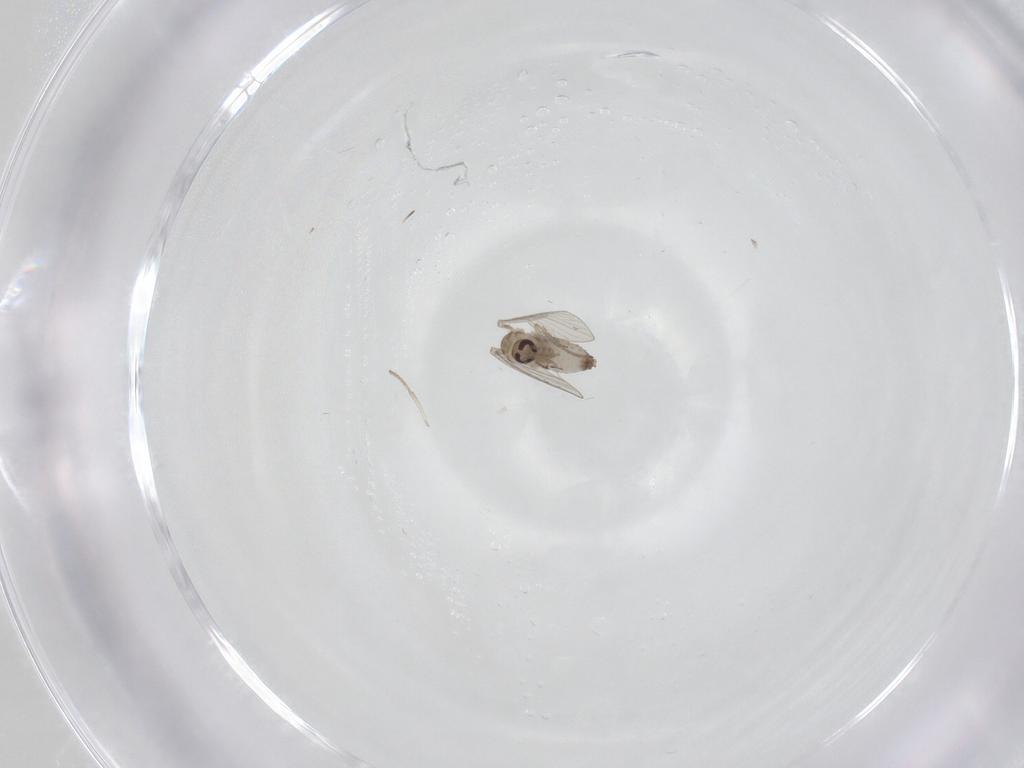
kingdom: Animalia
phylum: Arthropoda
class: Insecta
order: Diptera
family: Psychodidae
